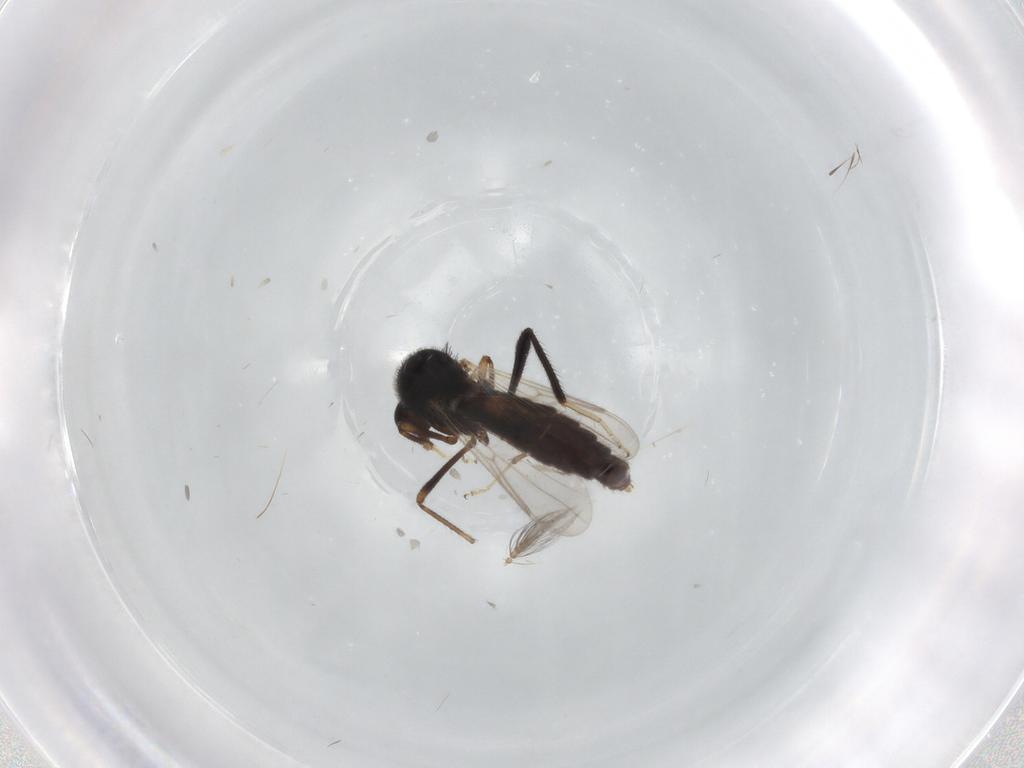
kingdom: Animalia
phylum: Arthropoda
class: Insecta
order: Diptera
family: Chironomidae
